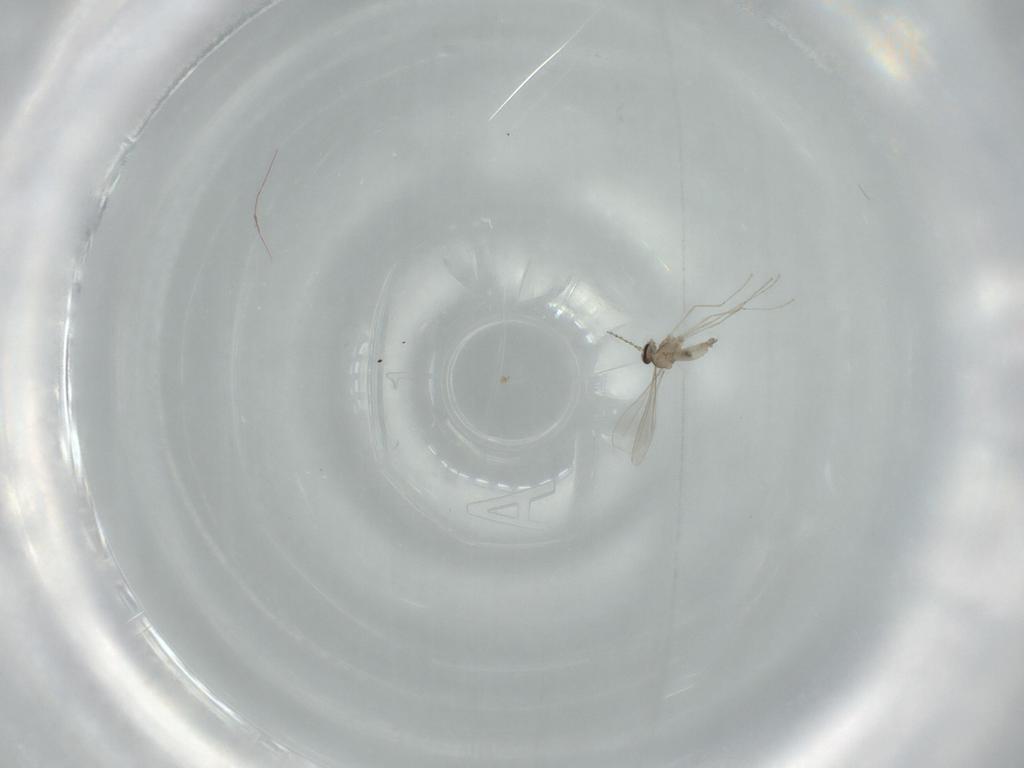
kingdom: Animalia
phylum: Arthropoda
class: Insecta
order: Diptera
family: Cecidomyiidae
